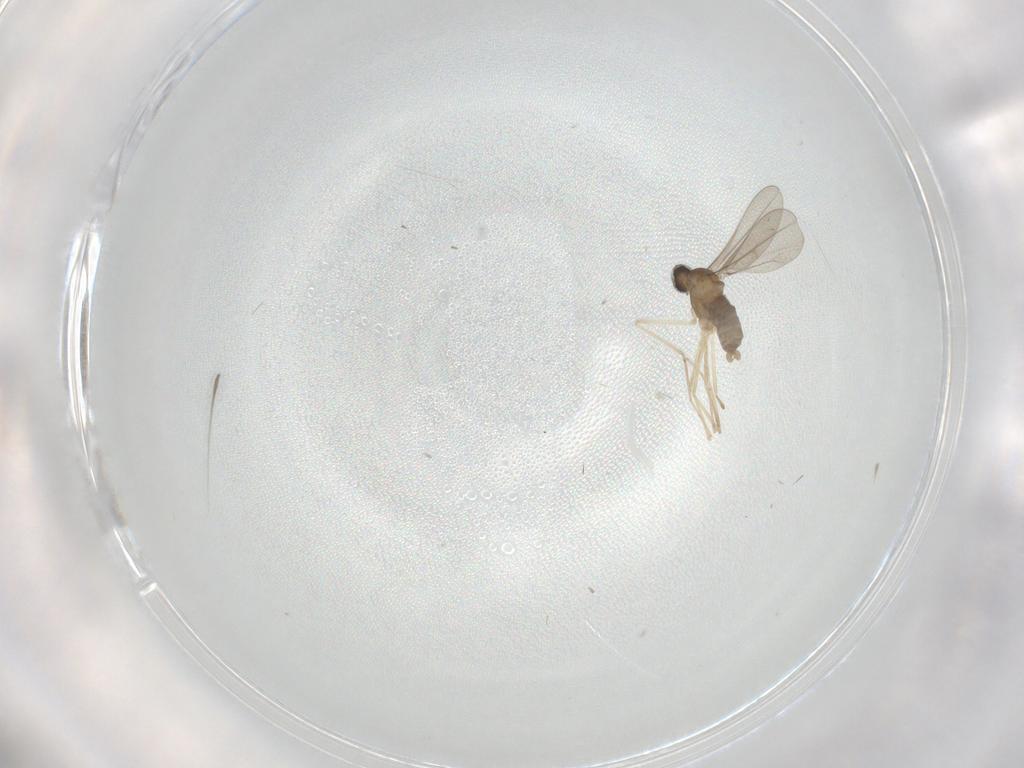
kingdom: Animalia
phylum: Arthropoda
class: Insecta
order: Diptera
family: Cecidomyiidae
